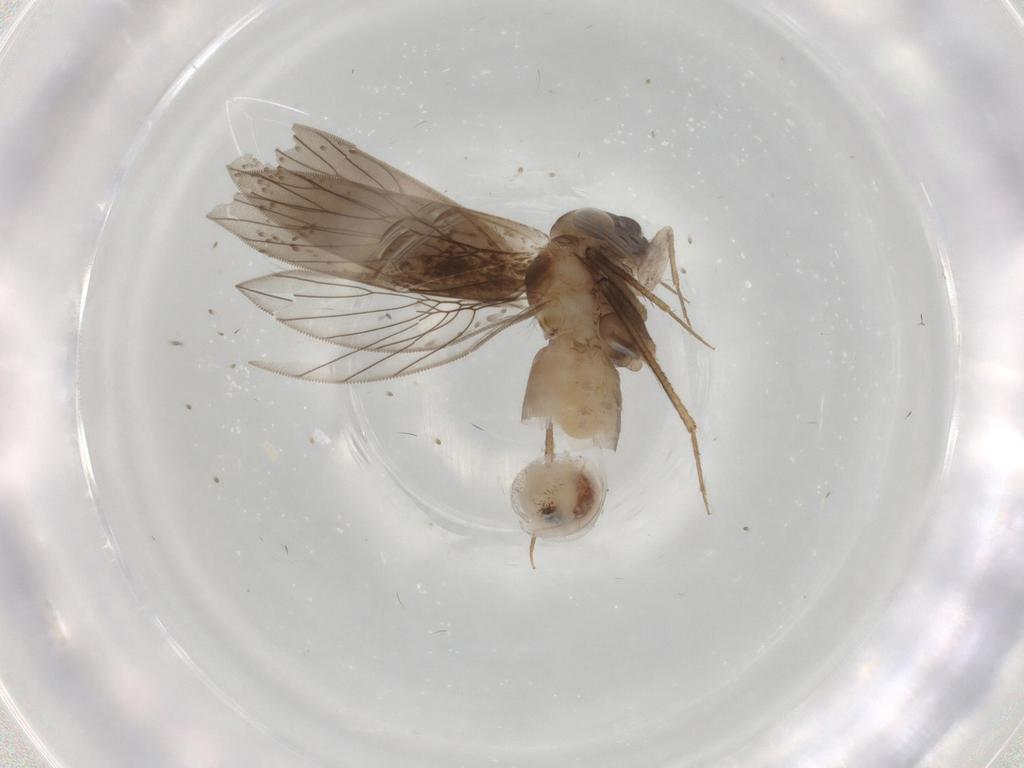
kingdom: Animalia
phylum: Arthropoda
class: Insecta
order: Psocodea
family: Lepidopsocidae
